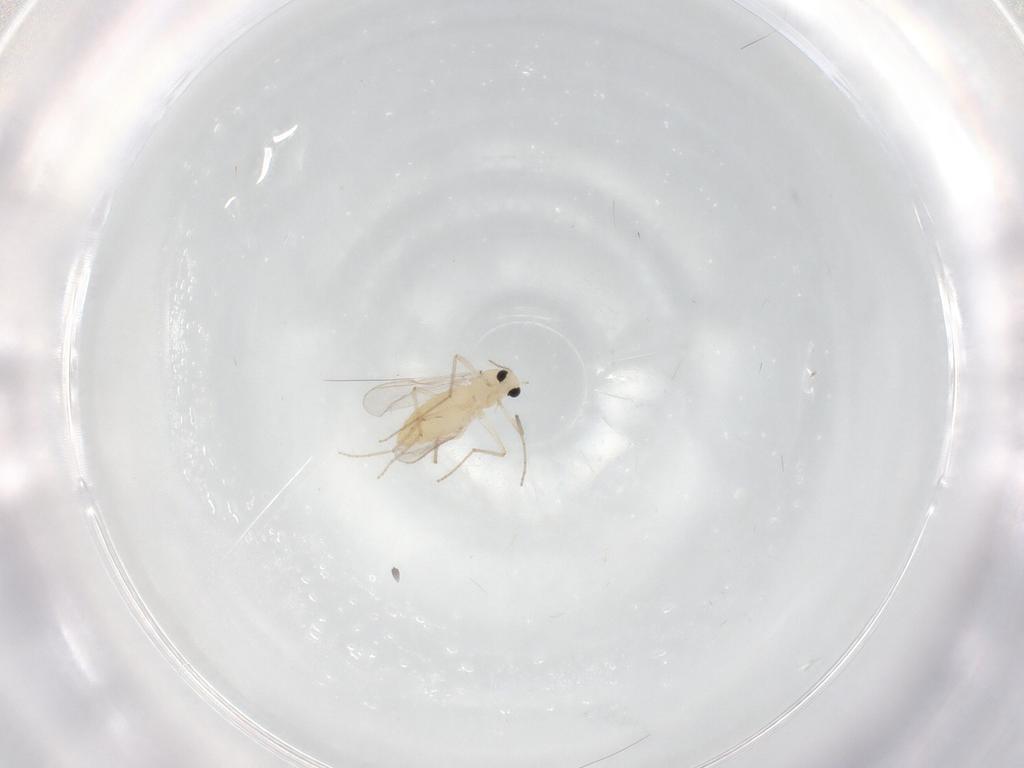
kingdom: Animalia
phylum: Arthropoda
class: Insecta
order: Diptera
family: Chironomidae
